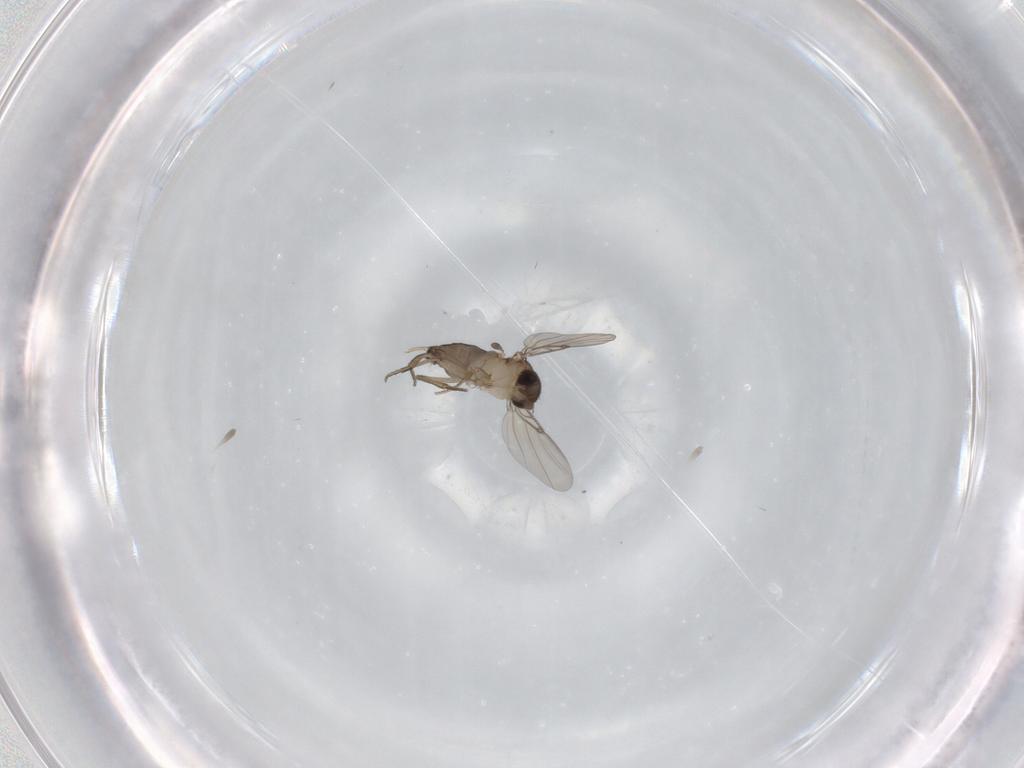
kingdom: Animalia
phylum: Arthropoda
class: Insecta
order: Diptera
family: Phoridae
